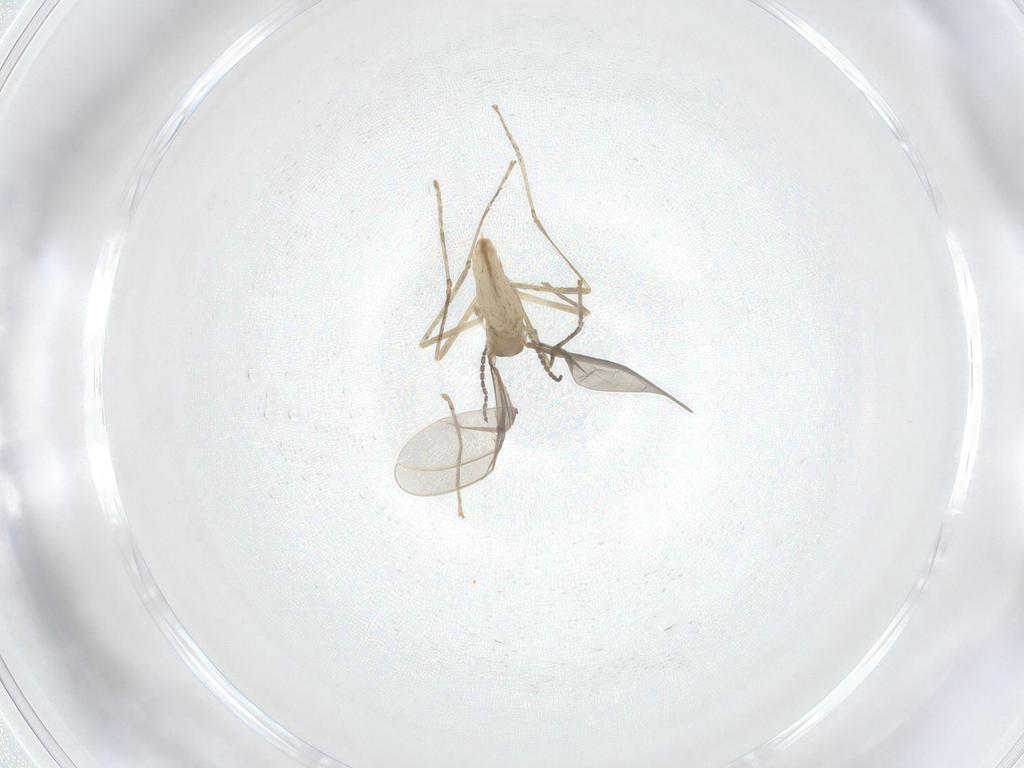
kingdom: Animalia
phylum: Arthropoda
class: Insecta
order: Diptera
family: Cecidomyiidae
